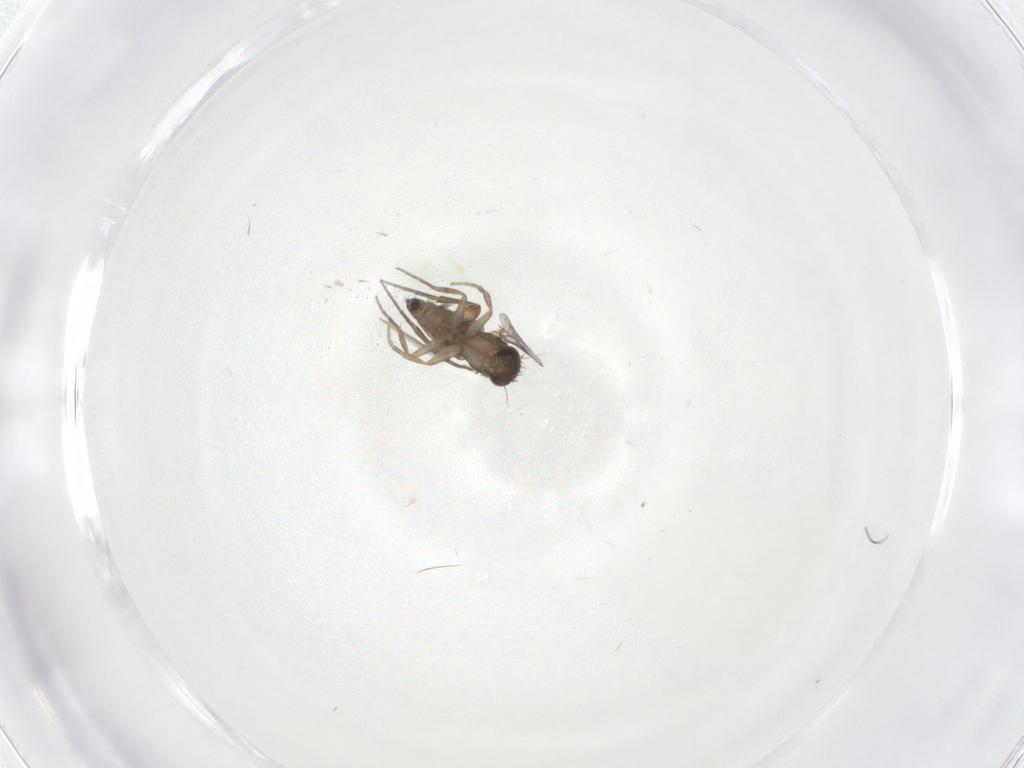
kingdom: Animalia
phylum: Arthropoda
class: Insecta
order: Diptera
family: Phoridae
